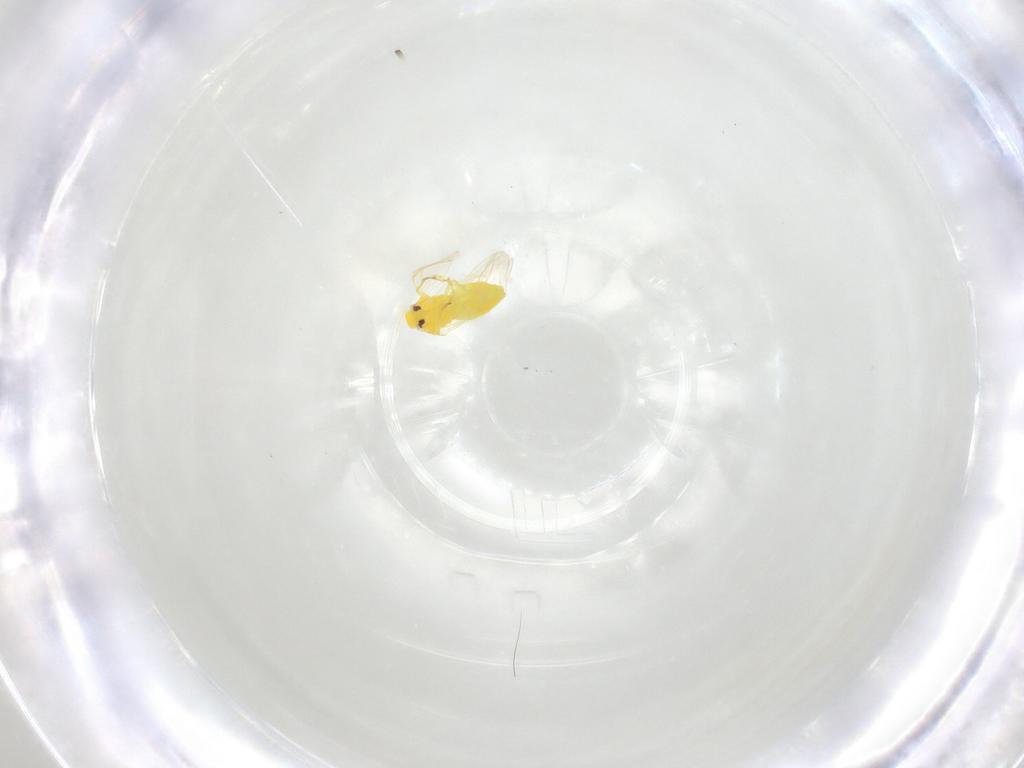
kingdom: Animalia
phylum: Arthropoda
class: Insecta
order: Hemiptera
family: Aleyrodidae
